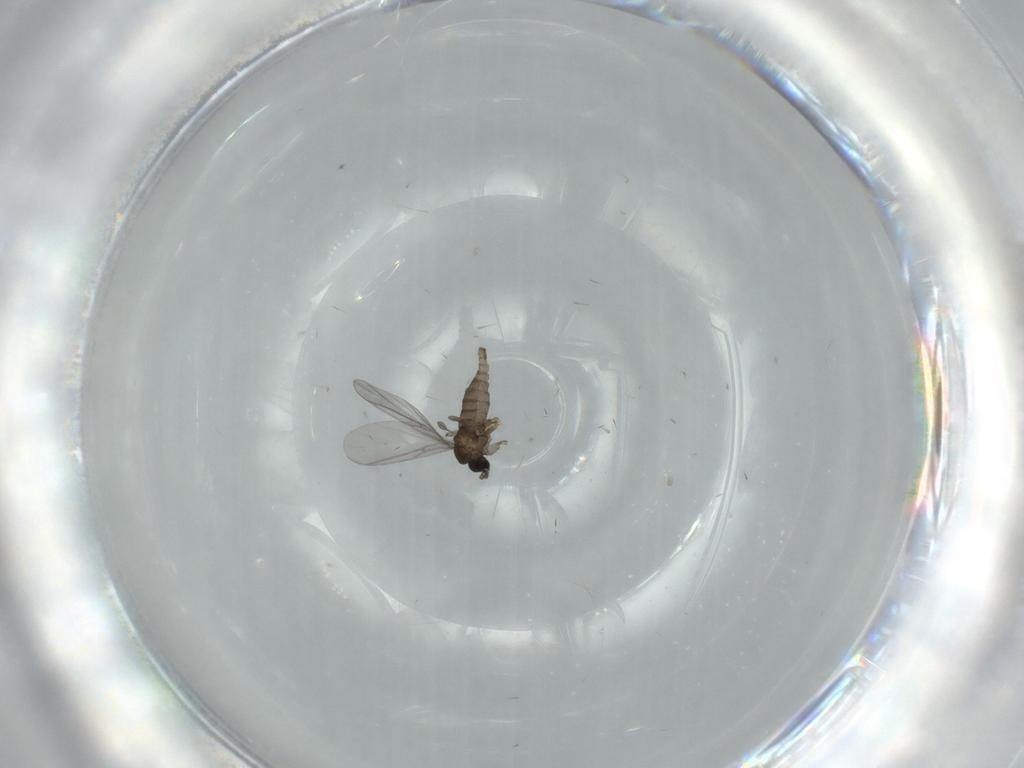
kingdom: Animalia
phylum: Arthropoda
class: Insecta
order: Diptera
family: Sciaridae
